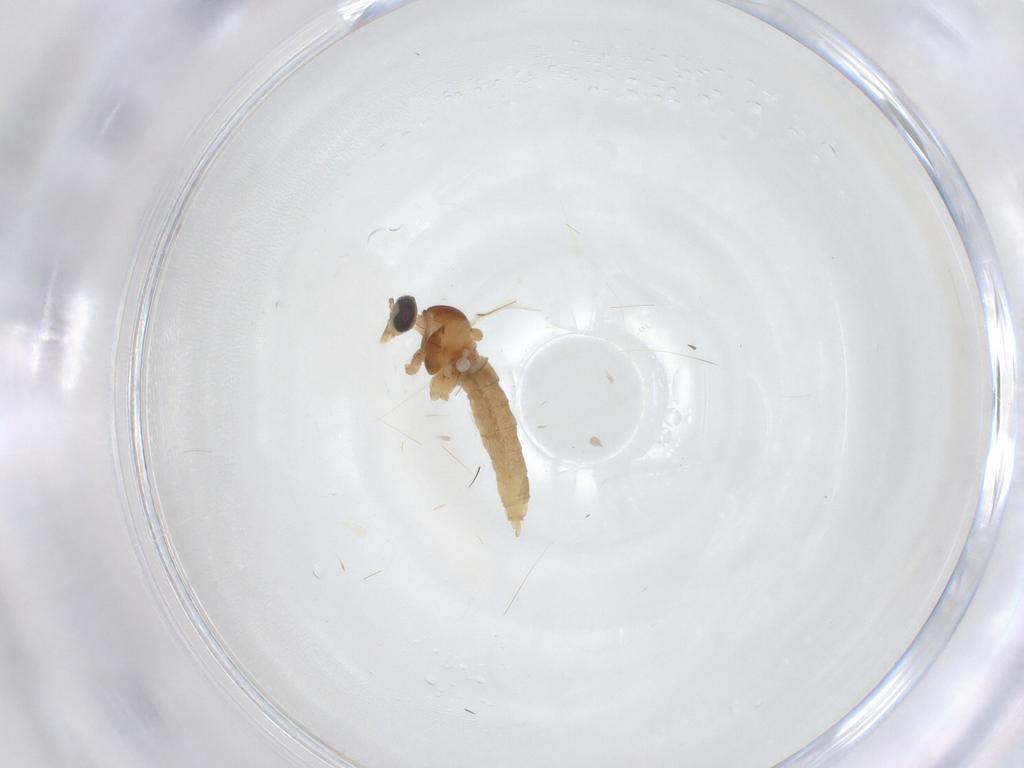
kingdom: Animalia
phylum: Arthropoda
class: Insecta
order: Diptera
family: Cecidomyiidae
